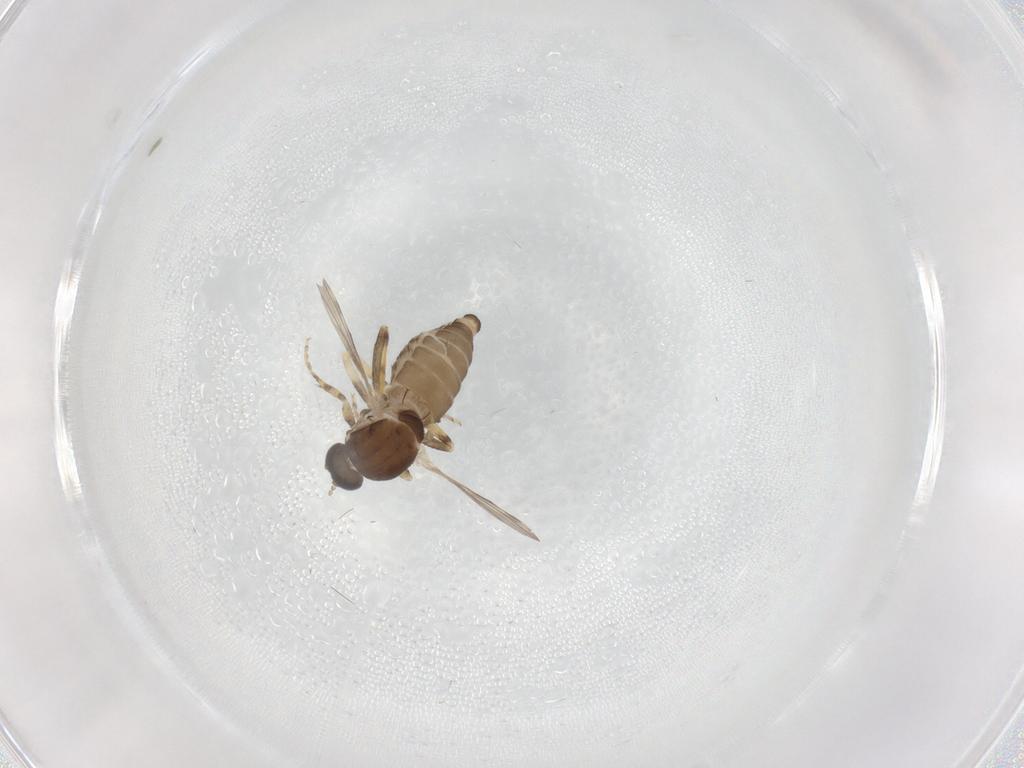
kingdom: Animalia
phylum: Arthropoda
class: Insecta
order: Diptera
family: Ceratopogonidae
